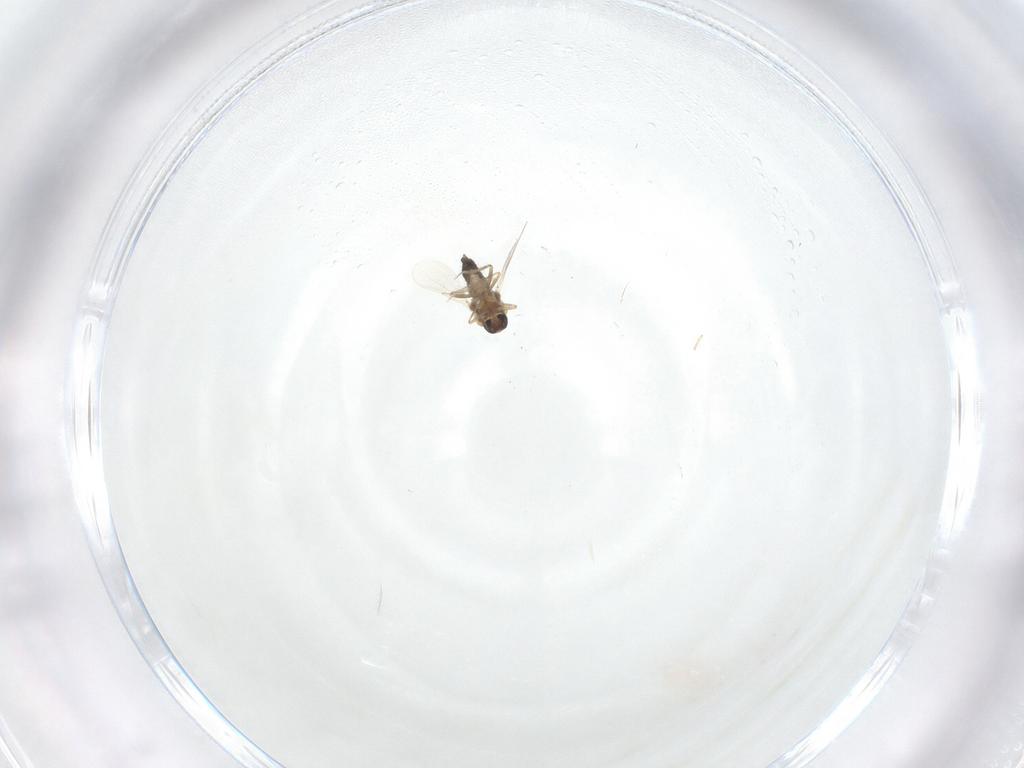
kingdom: Animalia
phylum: Arthropoda
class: Insecta
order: Diptera
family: Ceratopogonidae
